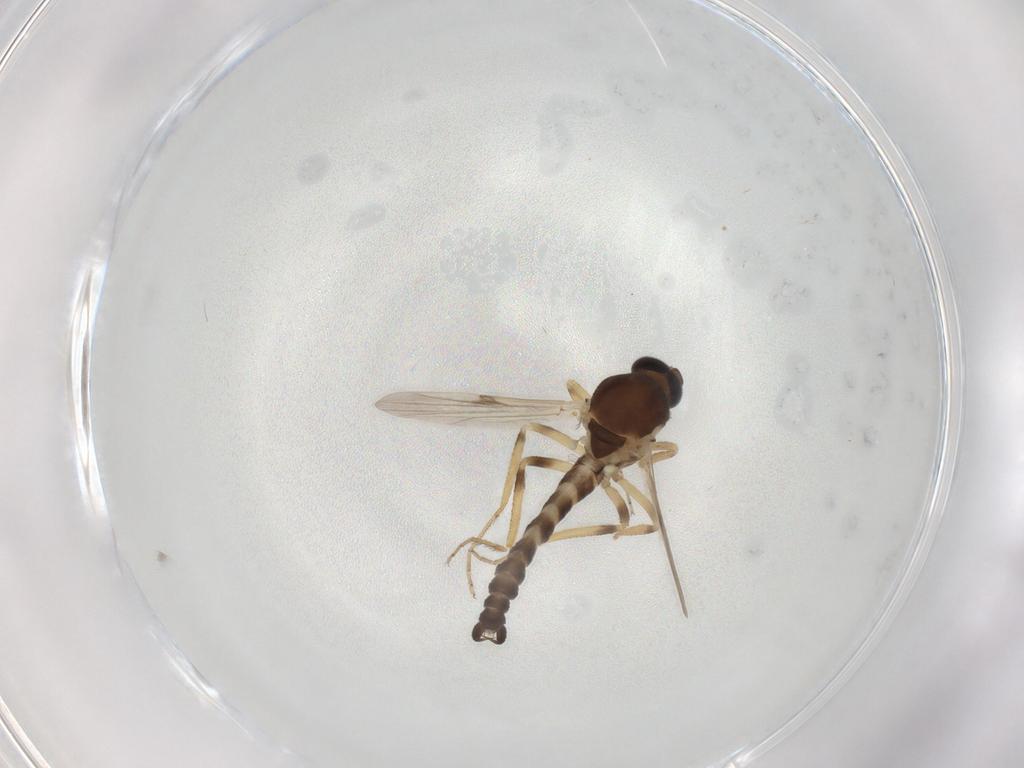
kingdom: Animalia
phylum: Arthropoda
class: Insecta
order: Diptera
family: Ceratopogonidae
